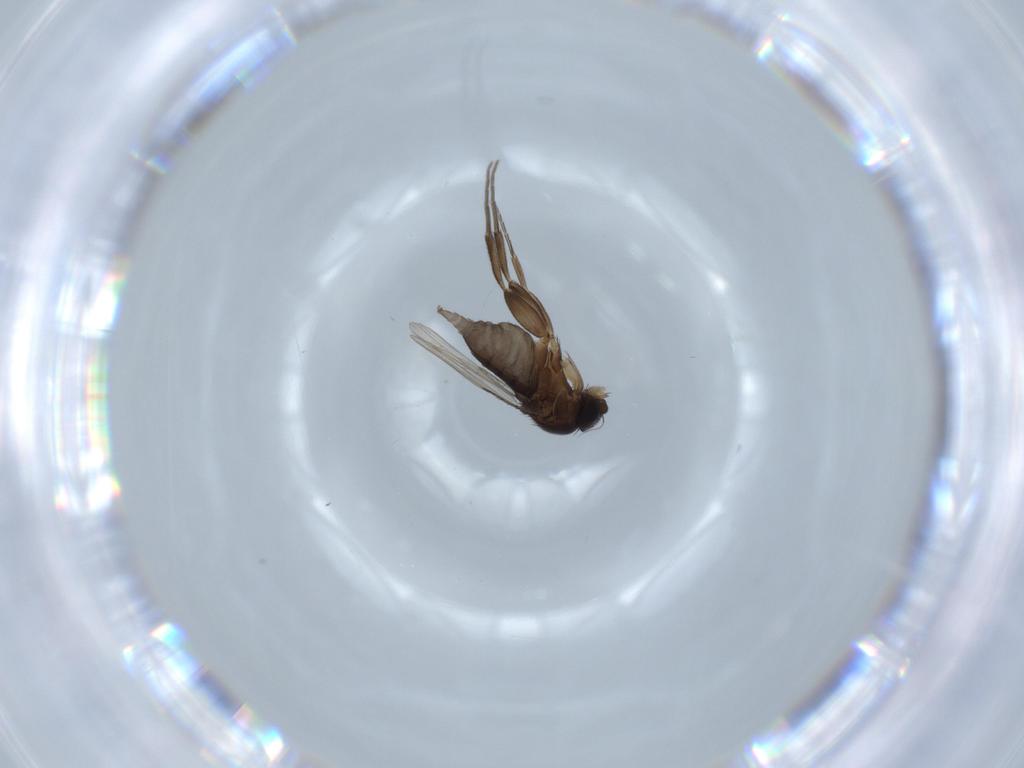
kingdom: Animalia
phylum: Arthropoda
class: Insecta
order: Diptera
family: Phoridae
